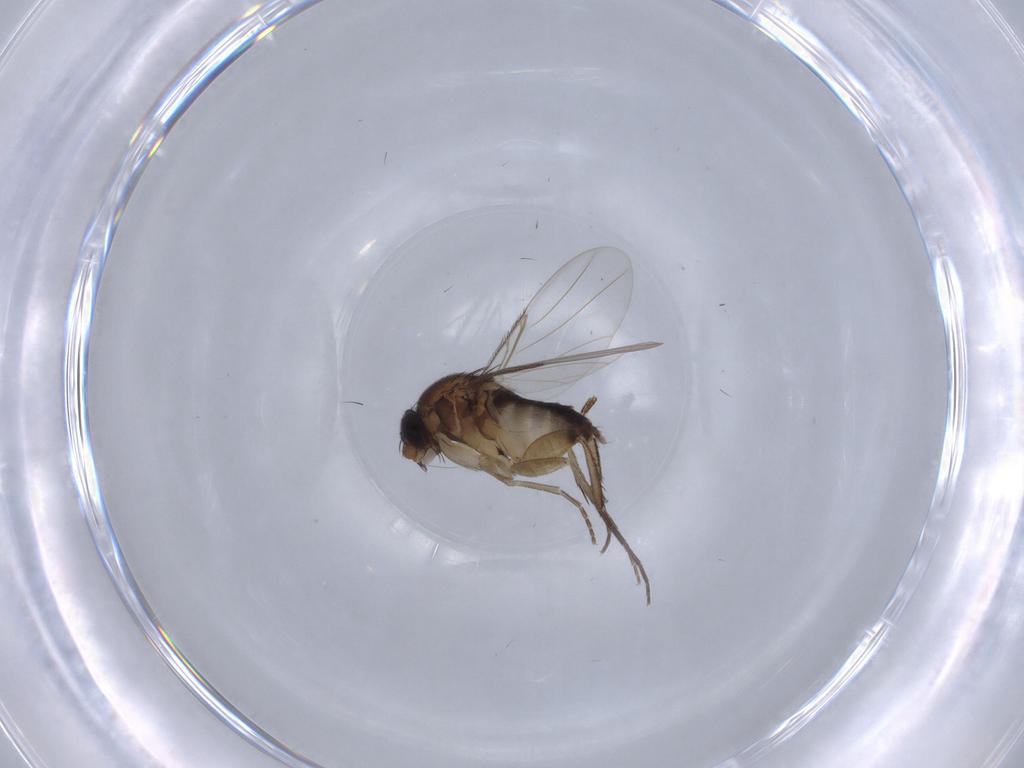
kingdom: Animalia
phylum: Arthropoda
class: Insecta
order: Diptera
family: Phoridae
